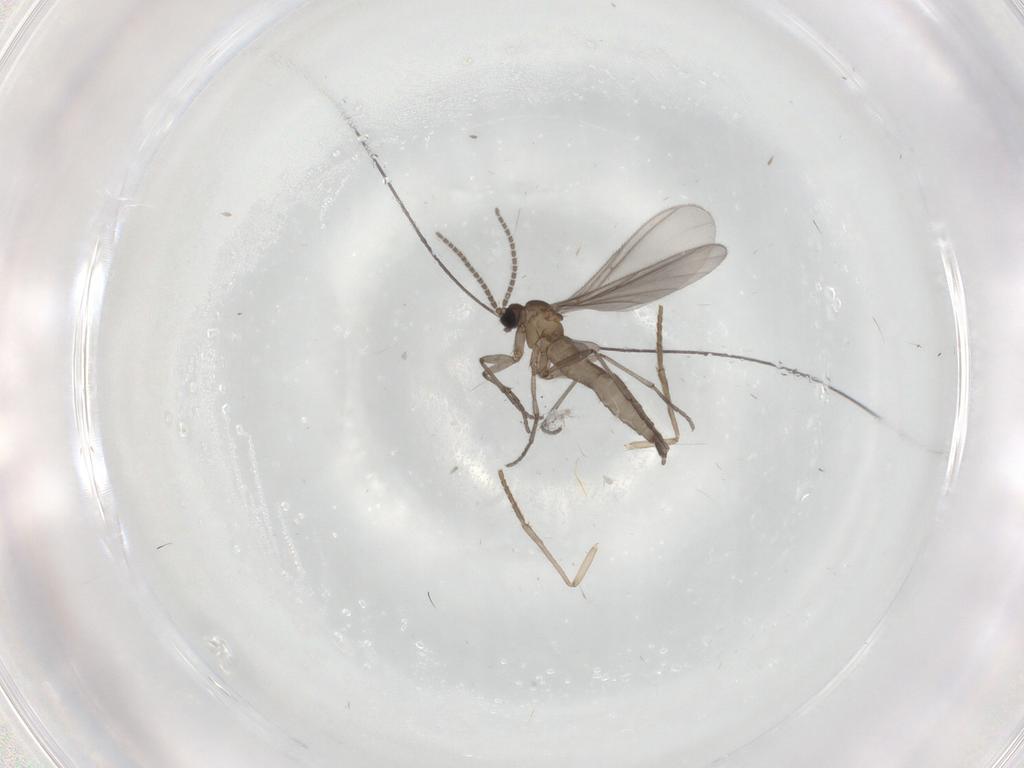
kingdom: Animalia
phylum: Arthropoda
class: Insecta
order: Diptera
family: Sciaridae
